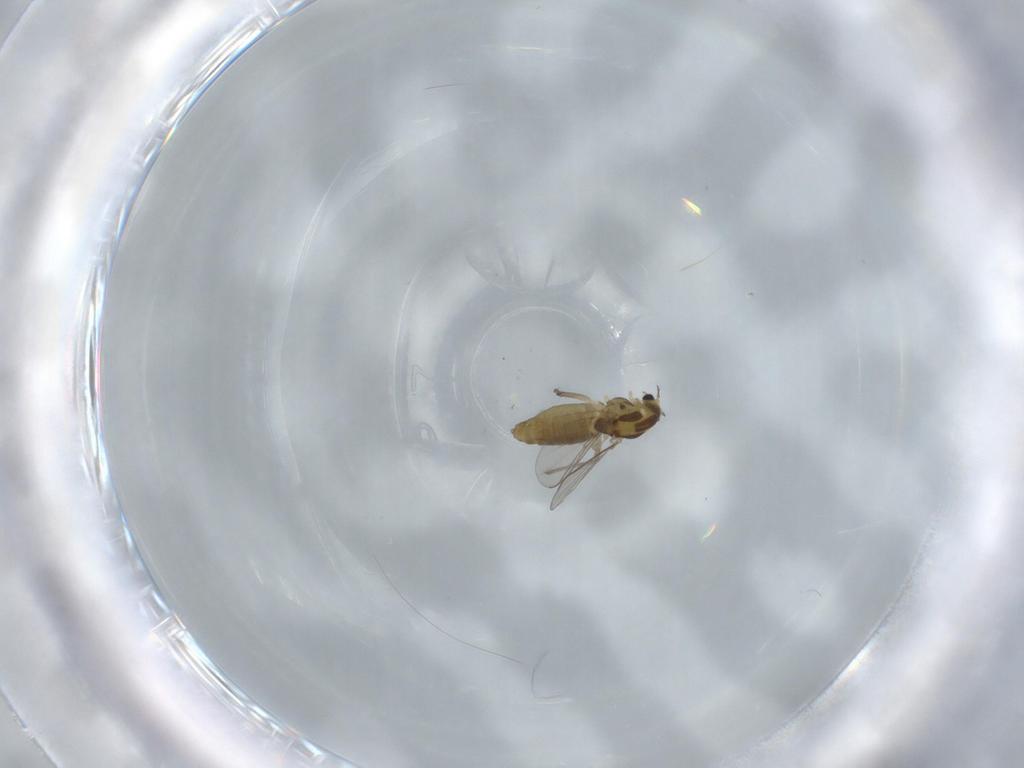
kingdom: Animalia
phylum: Arthropoda
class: Insecta
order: Diptera
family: Chironomidae
